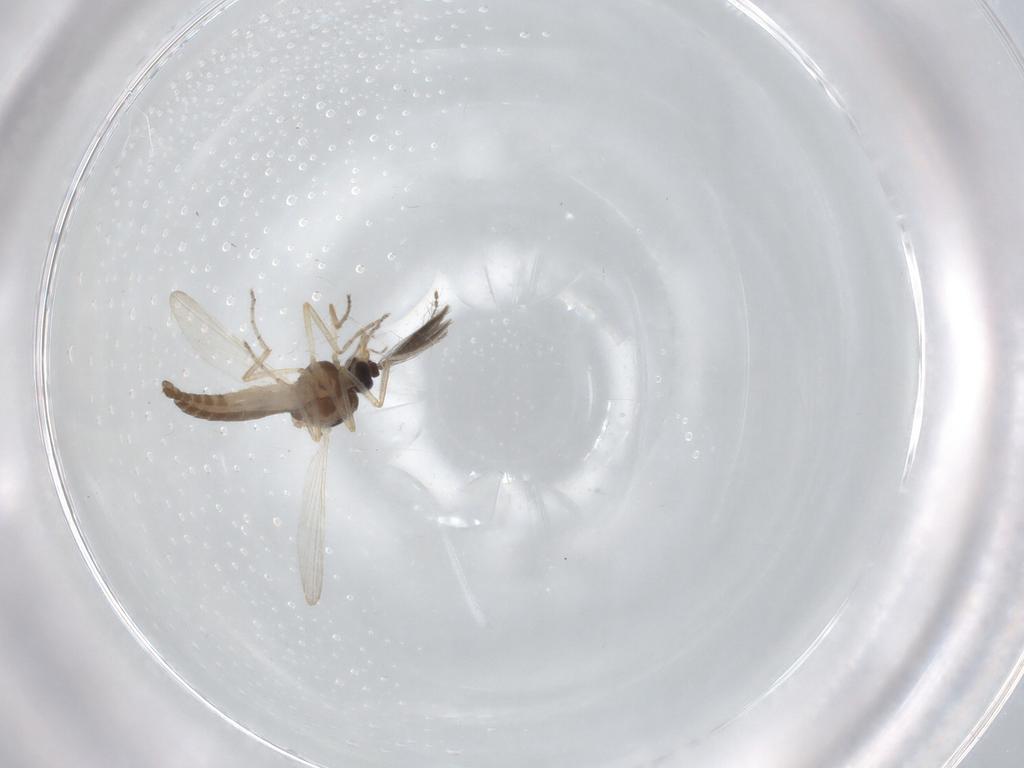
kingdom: Animalia
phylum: Arthropoda
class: Insecta
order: Diptera
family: Ceratopogonidae
